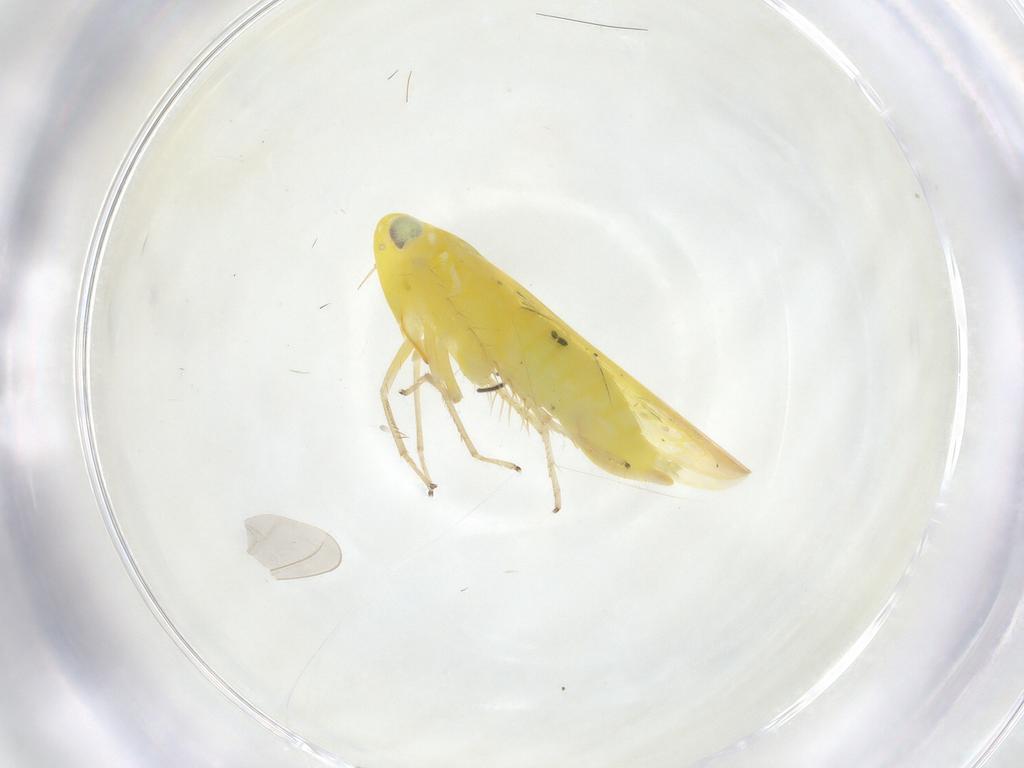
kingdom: Animalia
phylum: Arthropoda
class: Insecta
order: Hemiptera
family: Cicadellidae
